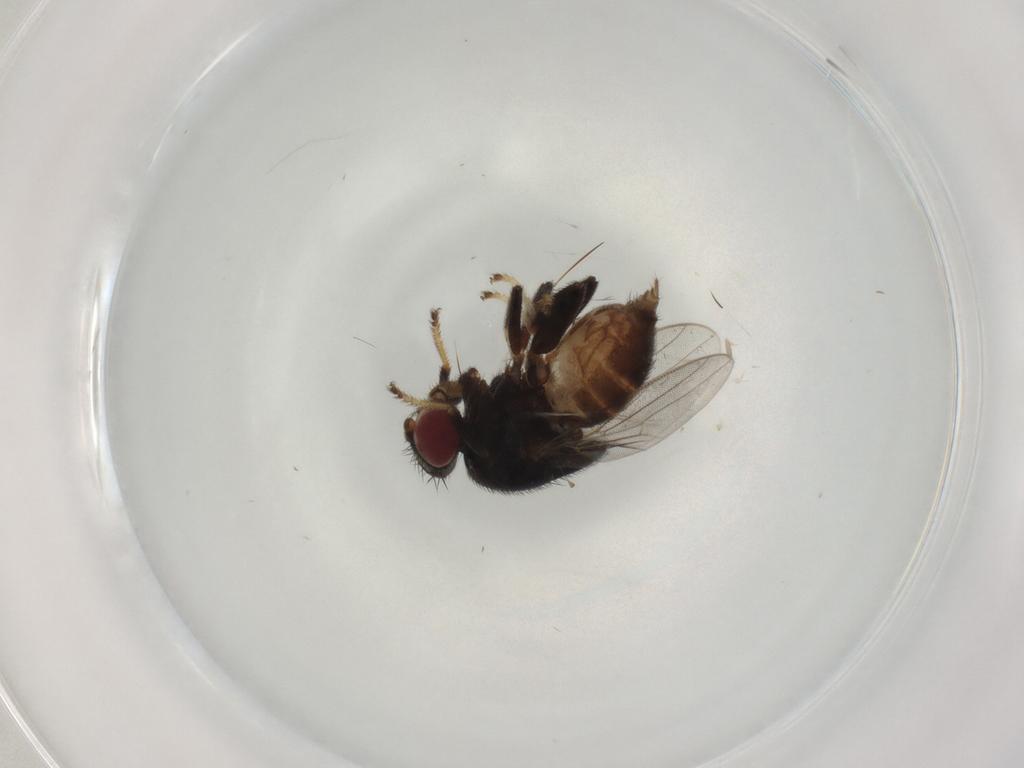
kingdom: Animalia
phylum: Arthropoda
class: Insecta
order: Diptera
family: Chloropidae
